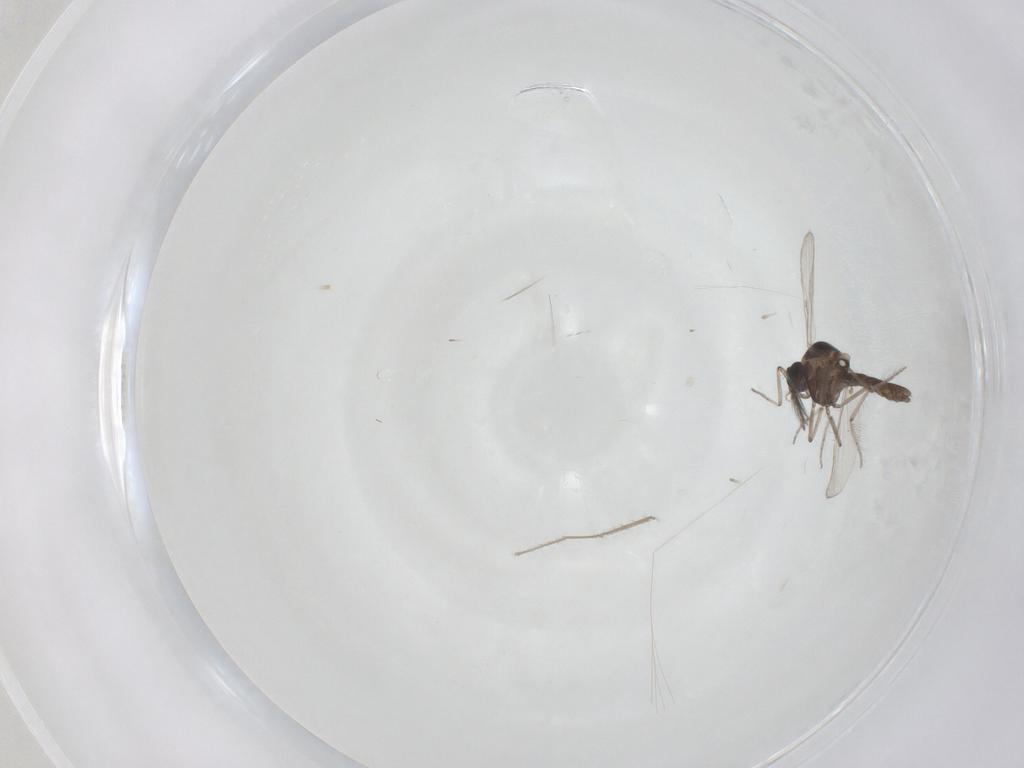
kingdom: Animalia
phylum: Arthropoda
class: Insecta
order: Diptera
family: Ceratopogonidae
